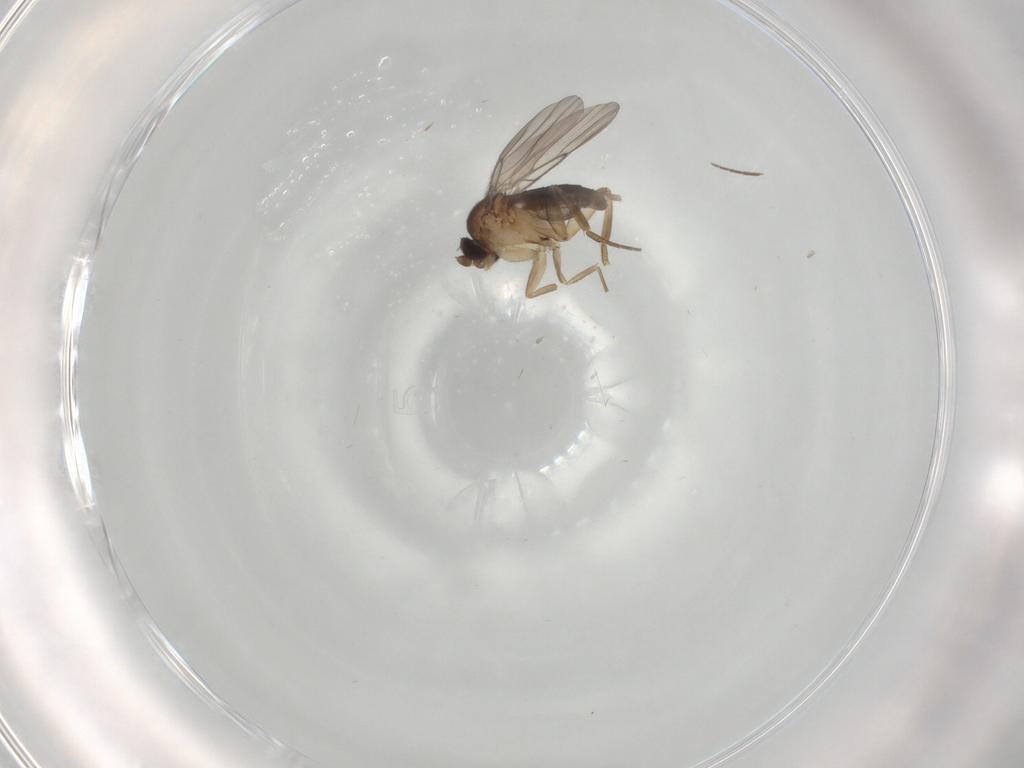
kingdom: Animalia
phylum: Arthropoda
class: Insecta
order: Diptera
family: Phoridae
